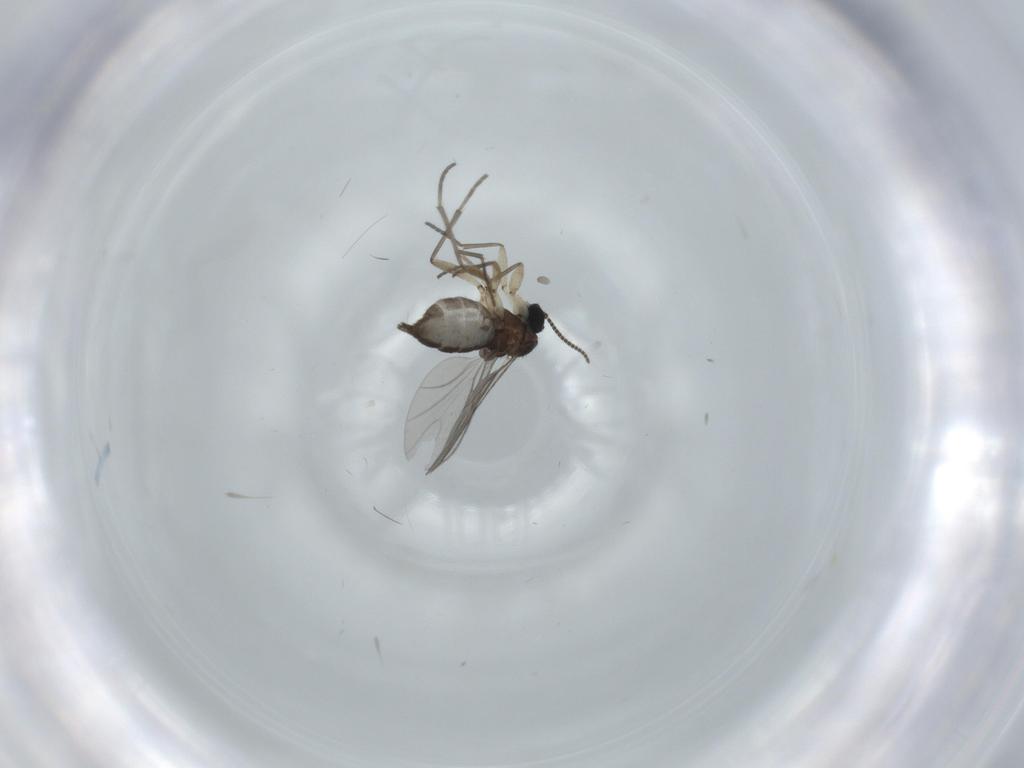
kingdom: Animalia
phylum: Arthropoda
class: Insecta
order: Diptera
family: Sciaridae
